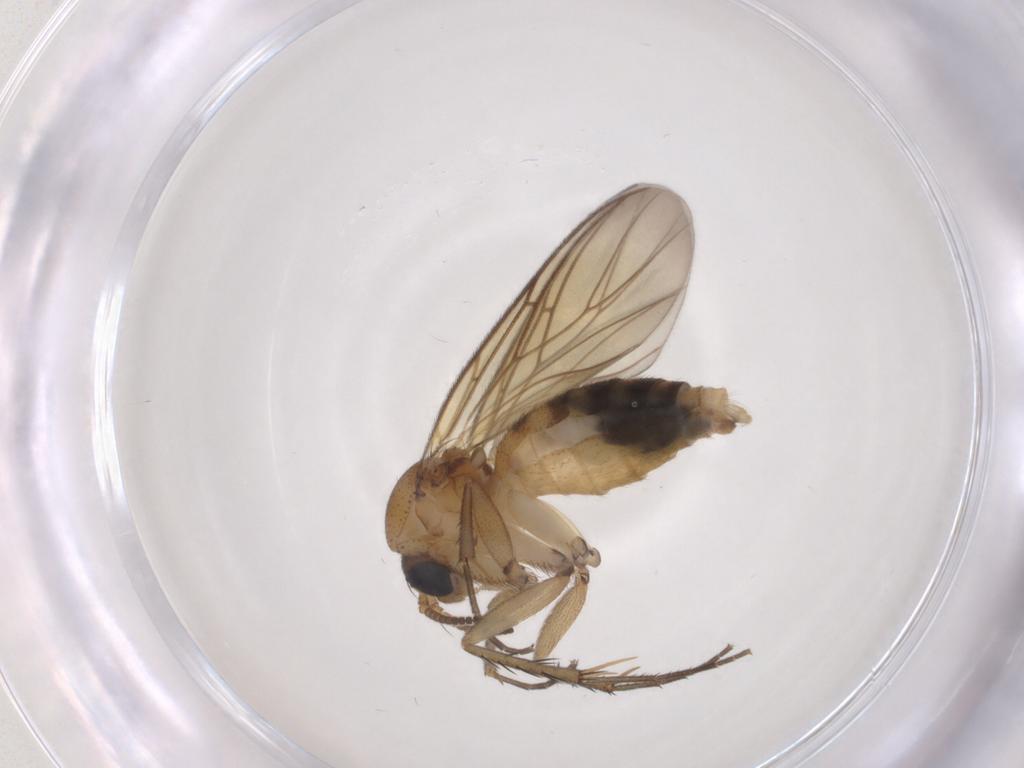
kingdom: Animalia
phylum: Arthropoda
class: Insecta
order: Diptera
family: Mycetophilidae
